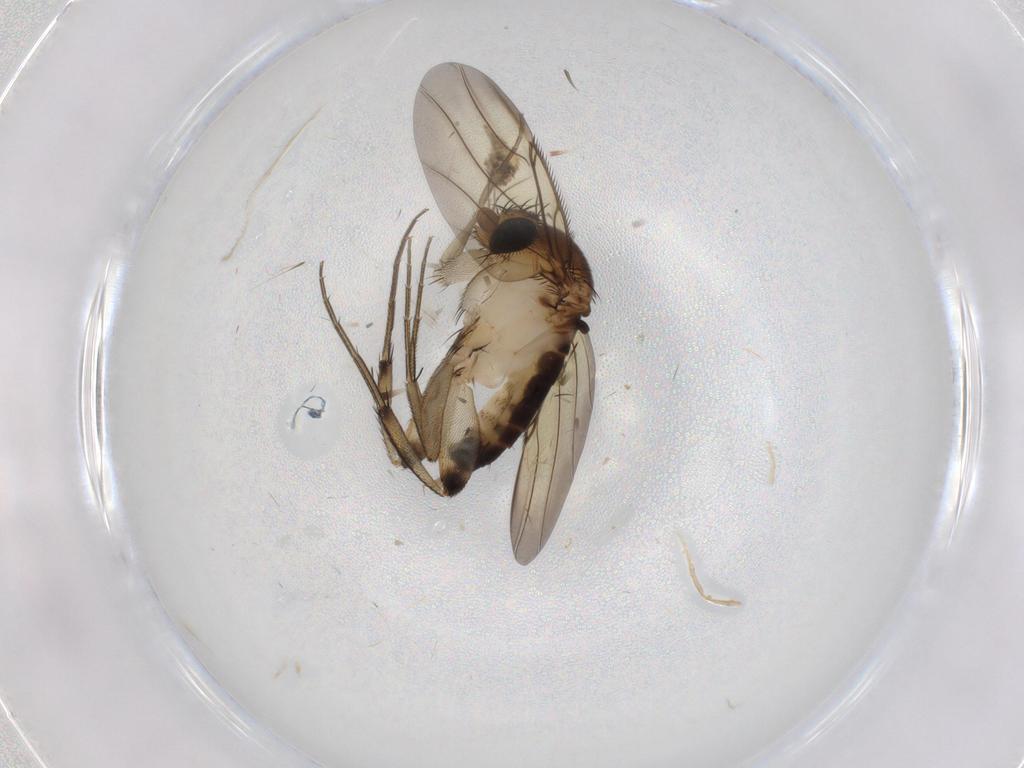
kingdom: Animalia
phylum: Arthropoda
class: Insecta
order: Diptera
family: Phoridae
